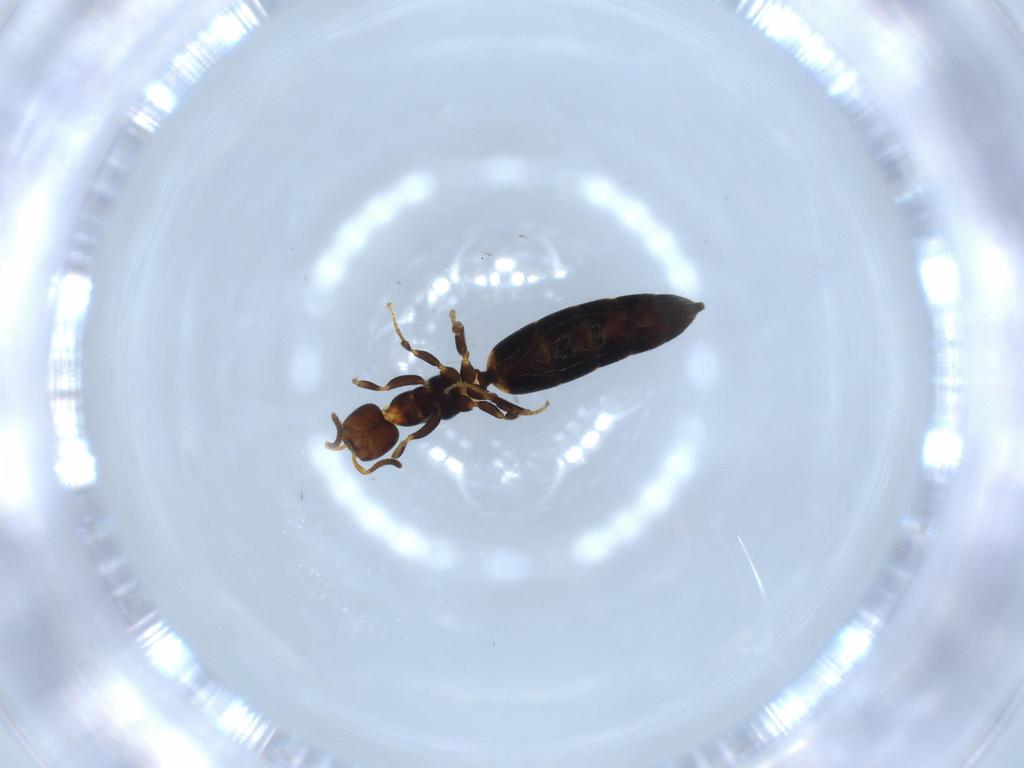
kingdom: Animalia
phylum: Arthropoda
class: Insecta
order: Hymenoptera
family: Bethylidae
